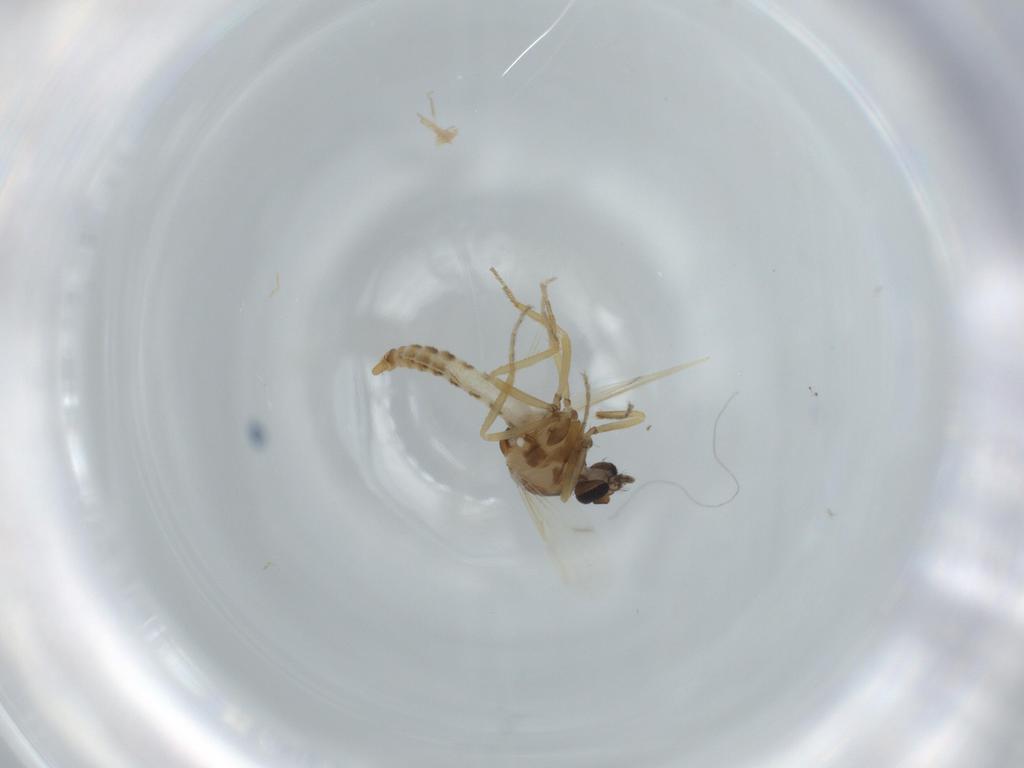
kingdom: Animalia
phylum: Arthropoda
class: Insecta
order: Diptera
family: Ceratopogonidae
